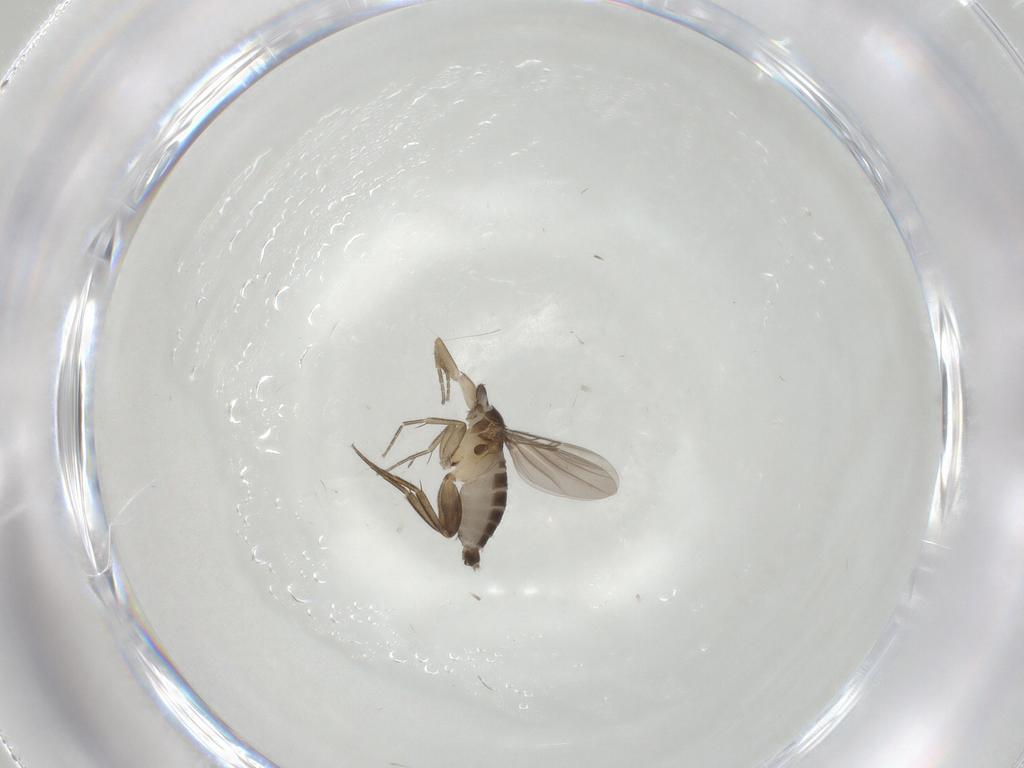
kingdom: Animalia
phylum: Arthropoda
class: Insecta
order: Diptera
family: Phoridae
